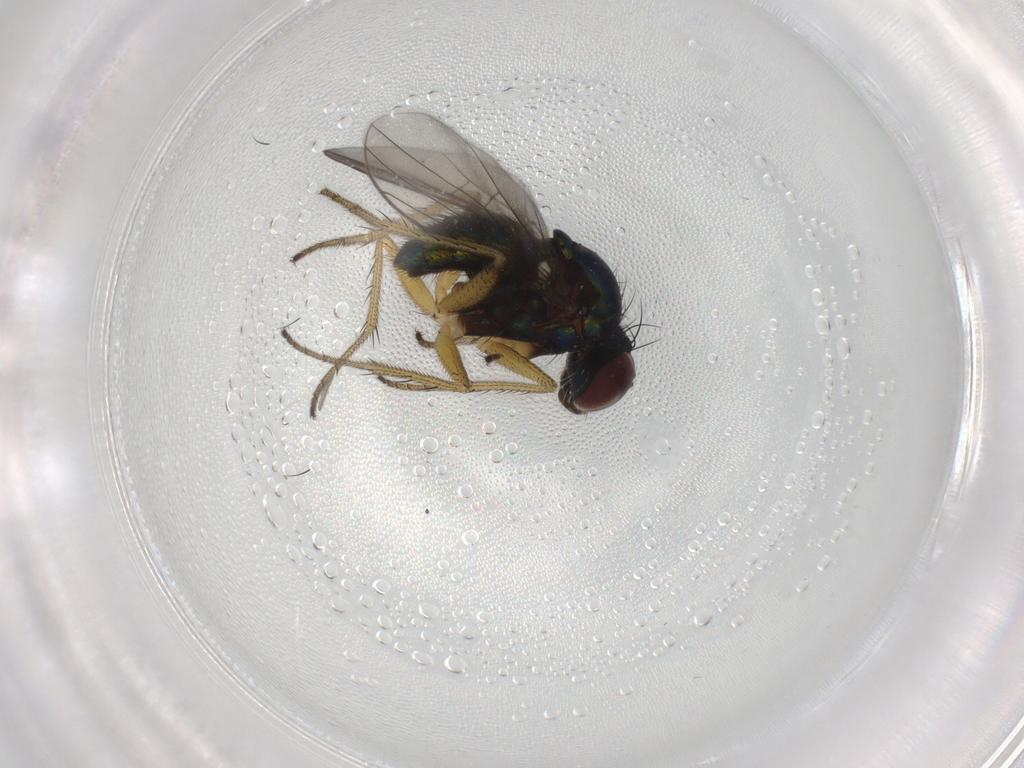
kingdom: Animalia
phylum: Arthropoda
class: Insecta
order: Diptera
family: Dolichopodidae
